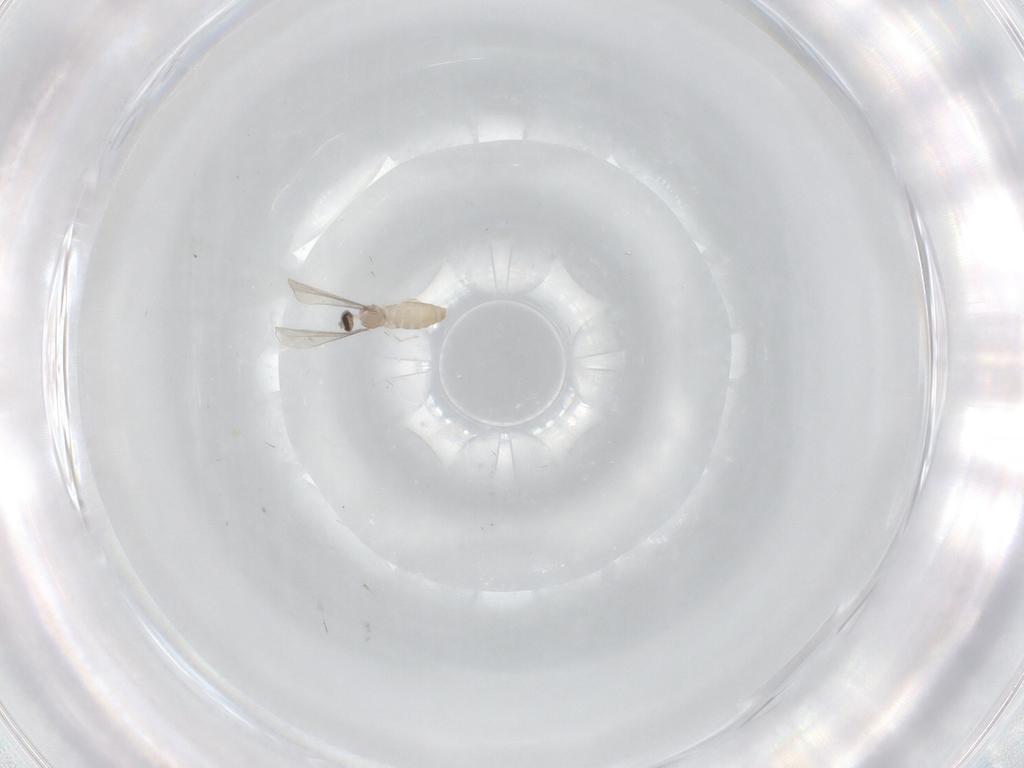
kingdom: Animalia
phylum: Arthropoda
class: Insecta
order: Diptera
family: Cecidomyiidae
